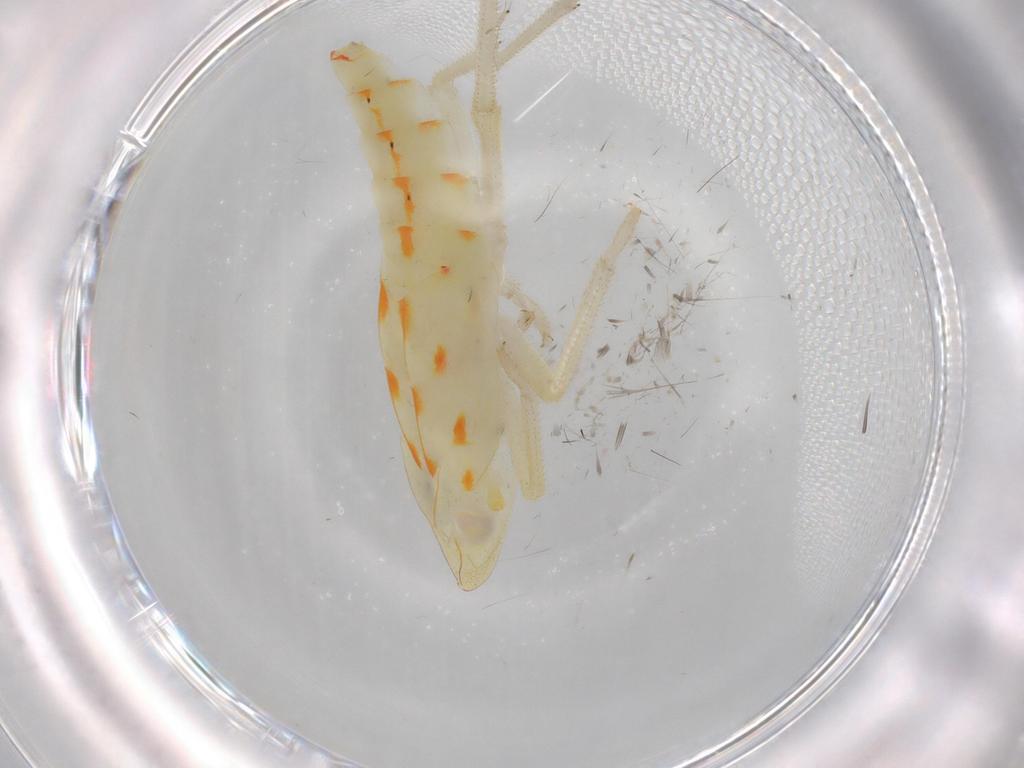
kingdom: Animalia
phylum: Arthropoda
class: Insecta
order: Hemiptera
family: Tropiduchidae
